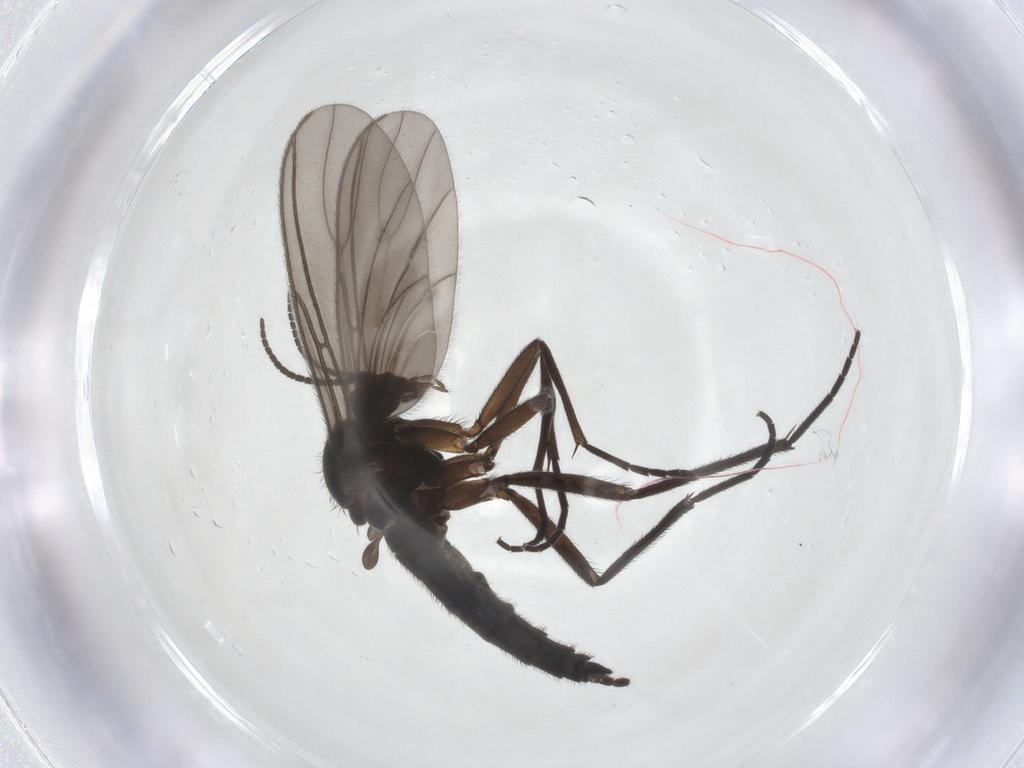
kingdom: Animalia
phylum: Arthropoda
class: Insecta
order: Diptera
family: Sciaridae
